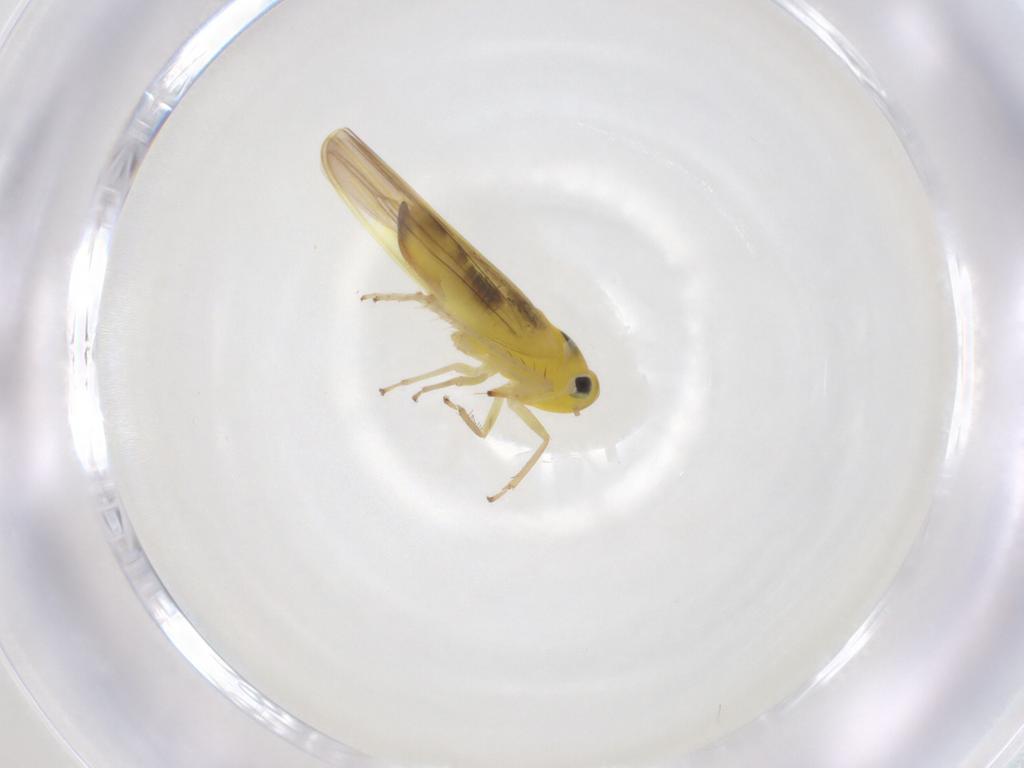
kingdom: Animalia
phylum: Arthropoda
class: Insecta
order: Hemiptera
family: Cicadellidae
